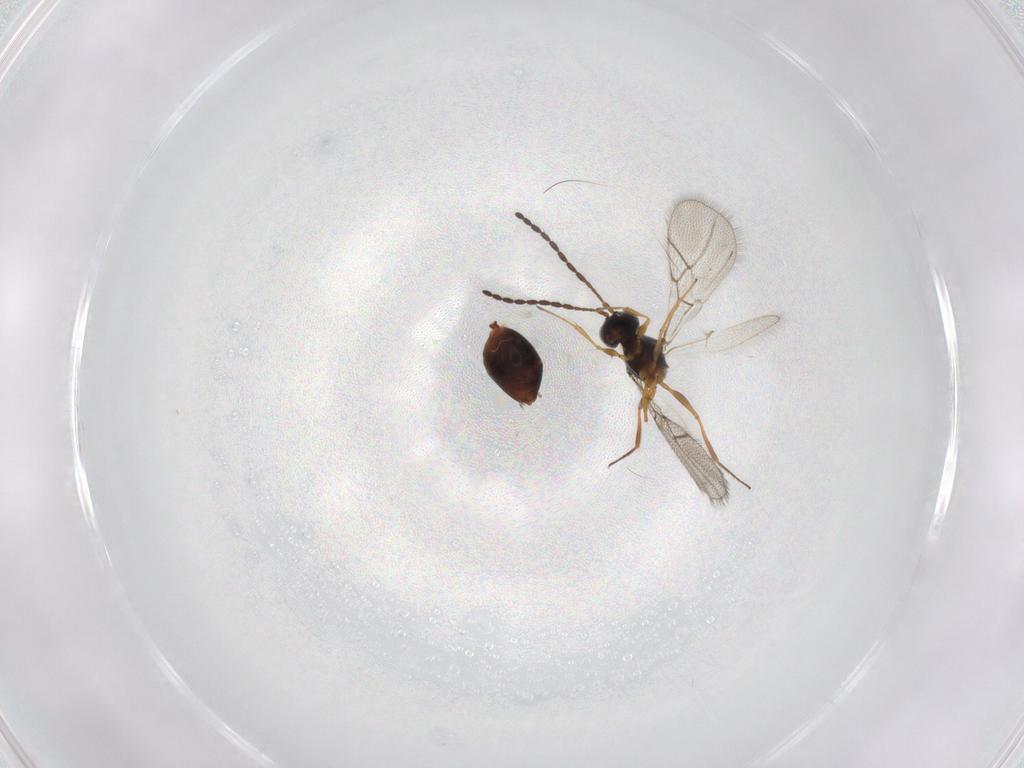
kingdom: Animalia
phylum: Arthropoda
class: Insecta
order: Hymenoptera
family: Figitidae
